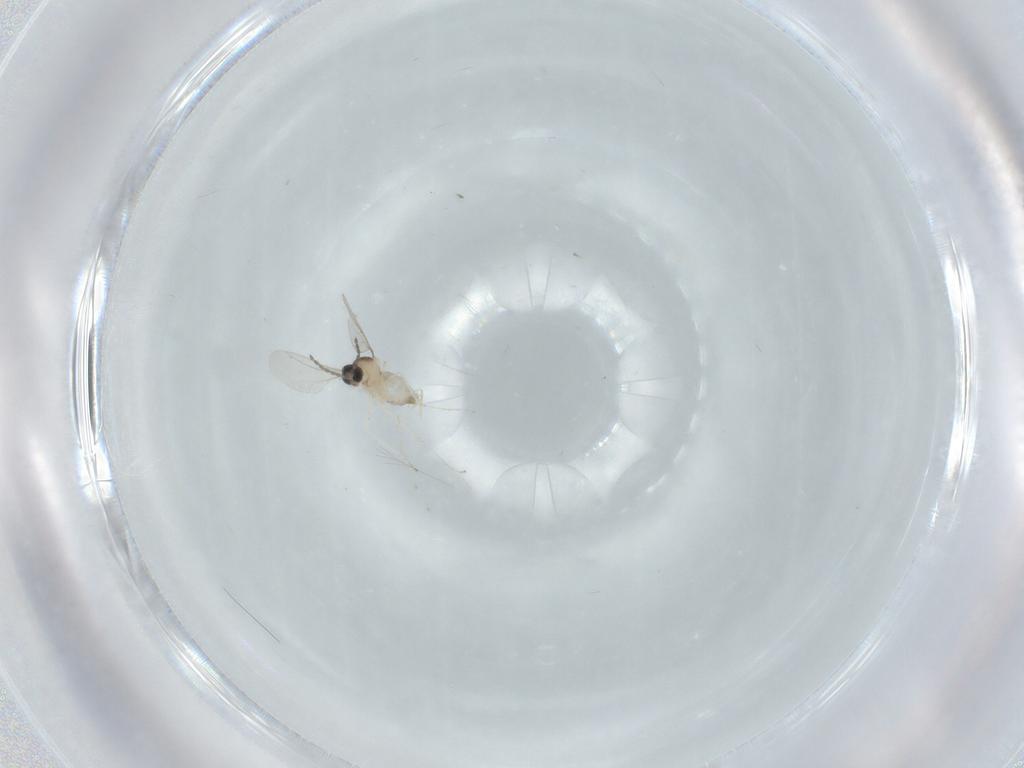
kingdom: Animalia
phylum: Arthropoda
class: Insecta
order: Diptera
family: Cecidomyiidae
